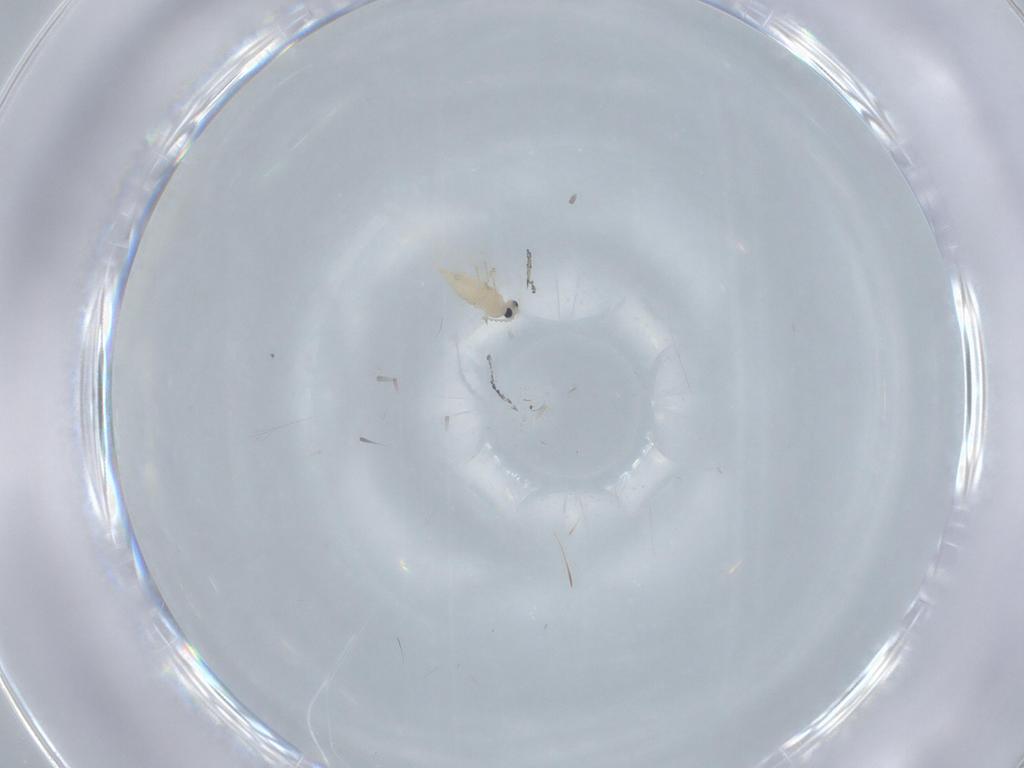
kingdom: Animalia
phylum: Arthropoda
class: Insecta
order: Diptera
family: Cecidomyiidae
